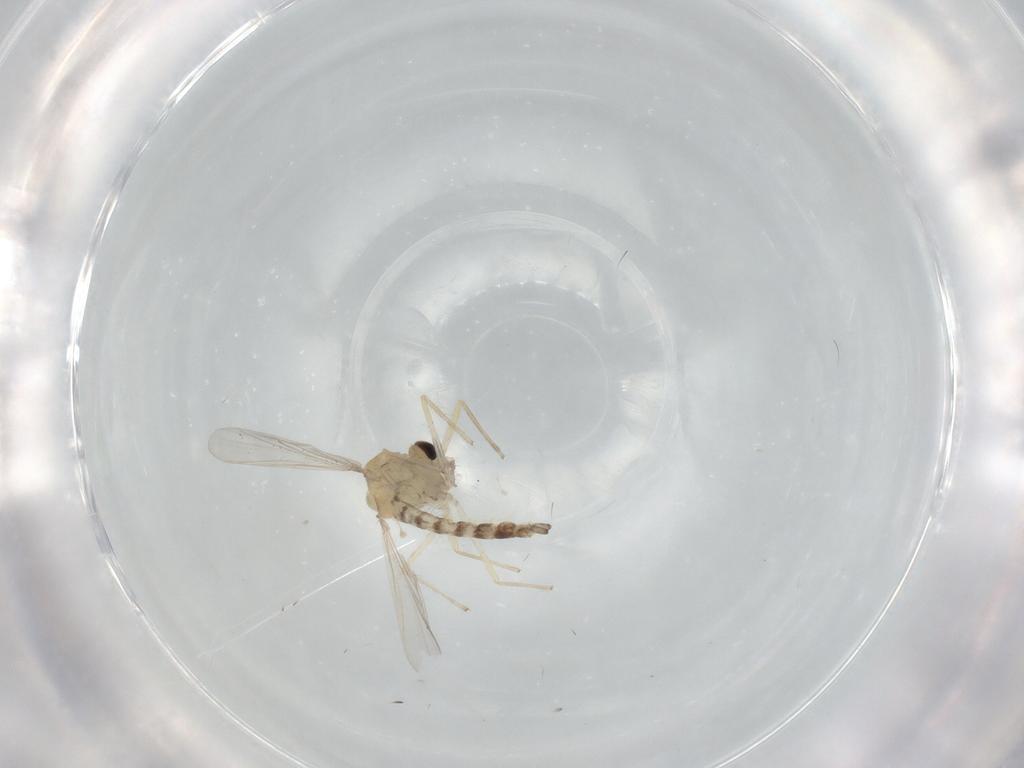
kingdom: Animalia
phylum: Arthropoda
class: Insecta
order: Diptera
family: Chironomidae
